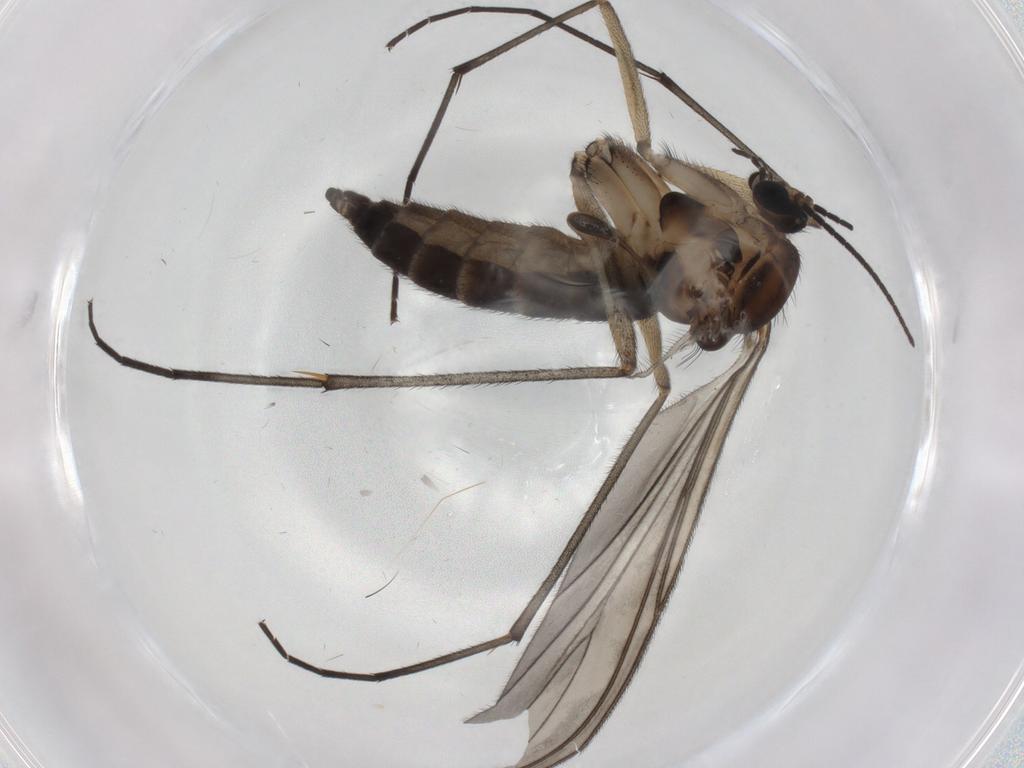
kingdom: Animalia
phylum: Arthropoda
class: Insecta
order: Diptera
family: Sciaridae
